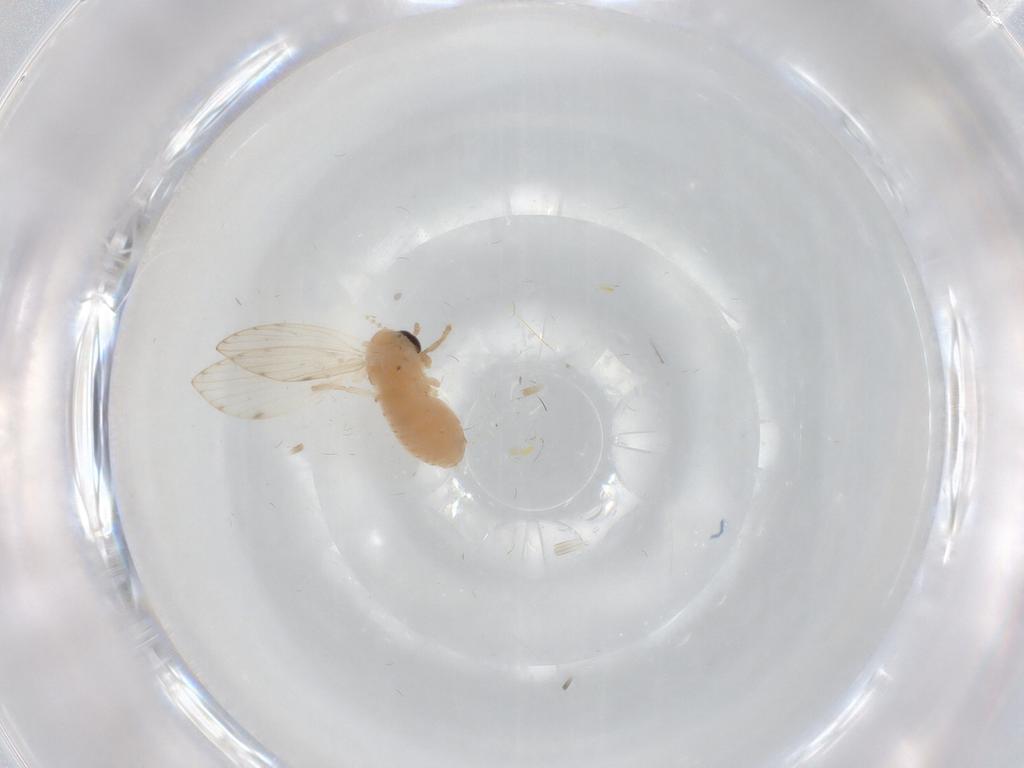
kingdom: Animalia
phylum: Arthropoda
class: Insecta
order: Diptera
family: Psychodidae
